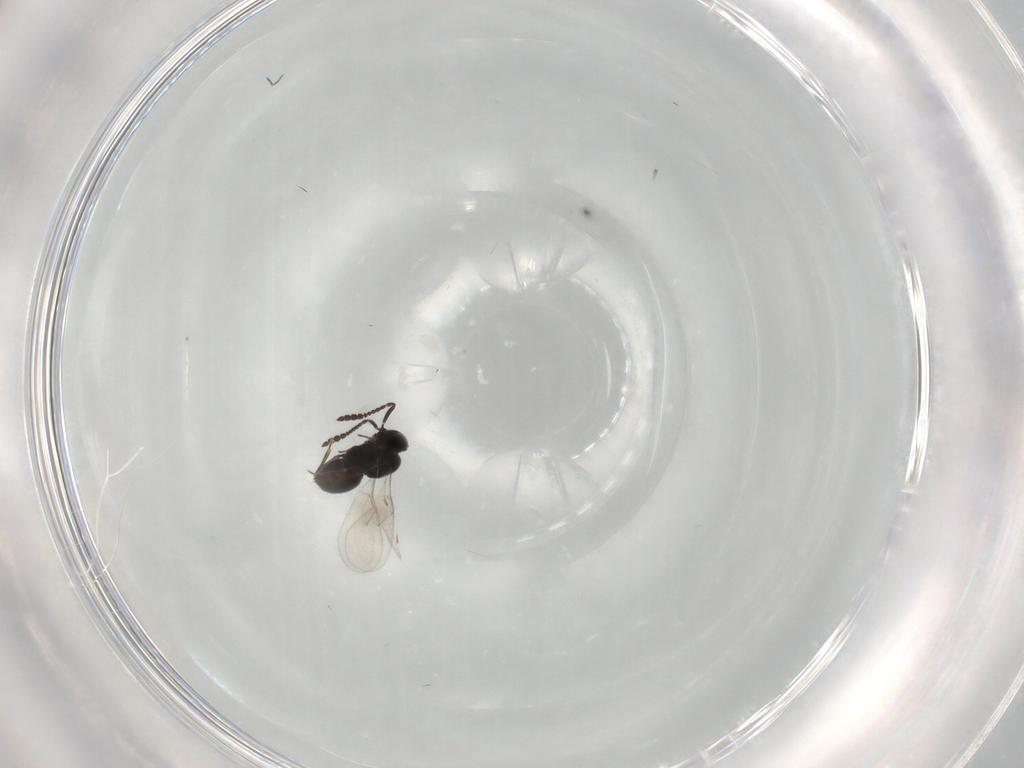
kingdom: Animalia
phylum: Arthropoda
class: Insecta
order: Hymenoptera
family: Scelionidae
